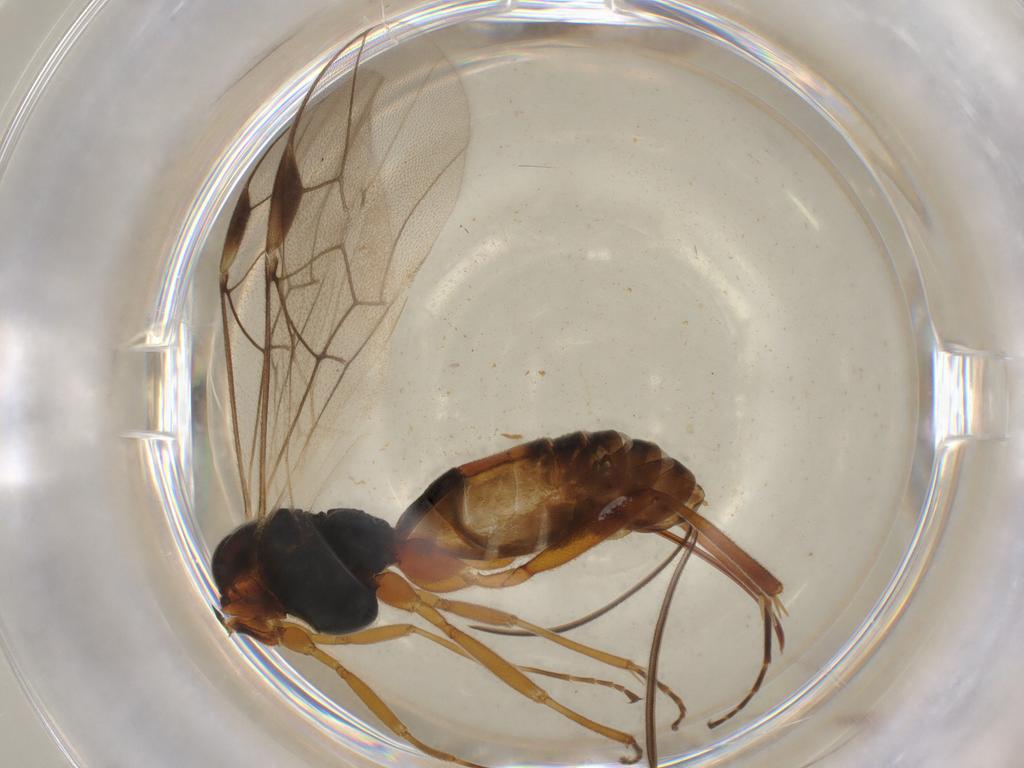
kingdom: Animalia
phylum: Arthropoda
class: Insecta
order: Hymenoptera
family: Braconidae
